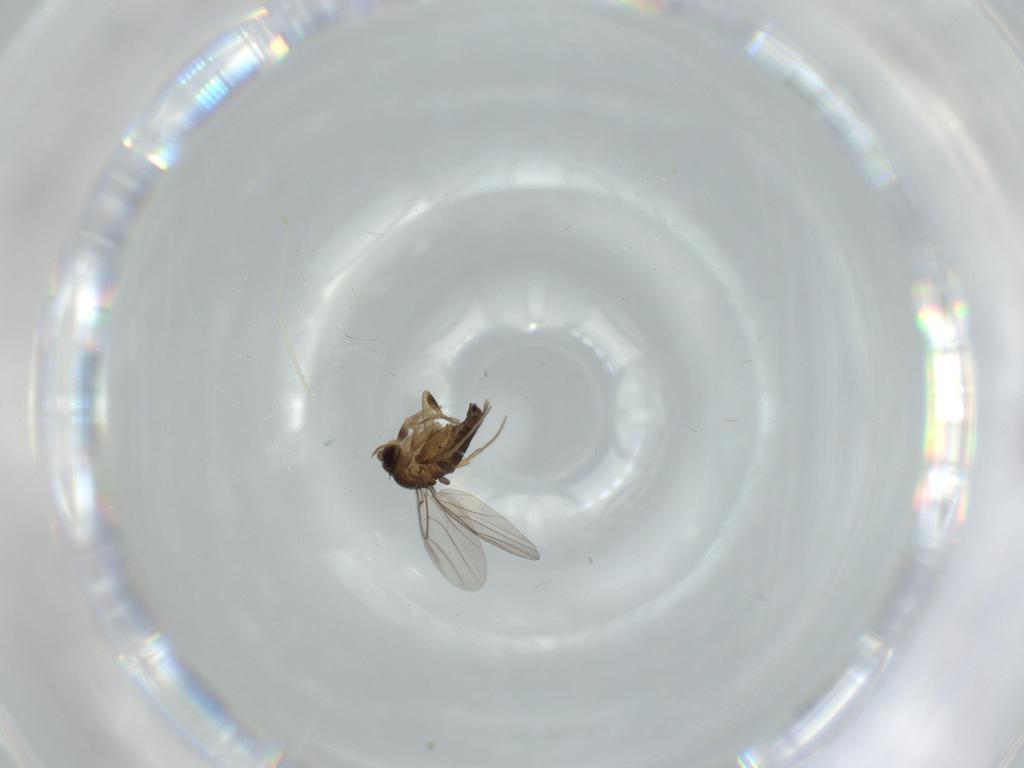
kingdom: Animalia
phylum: Arthropoda
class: Insecta
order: Diptera
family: Phoridae
